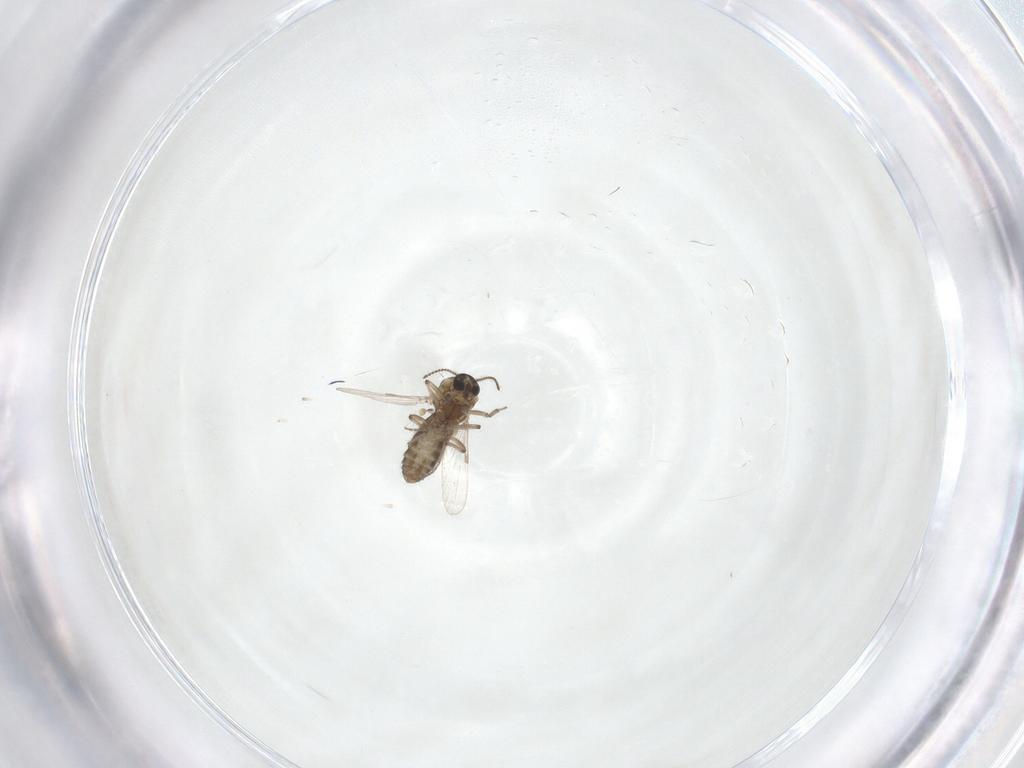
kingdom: Animalia
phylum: Arthropoda
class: Insecta
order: Diptera
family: Ceratopogonidae
